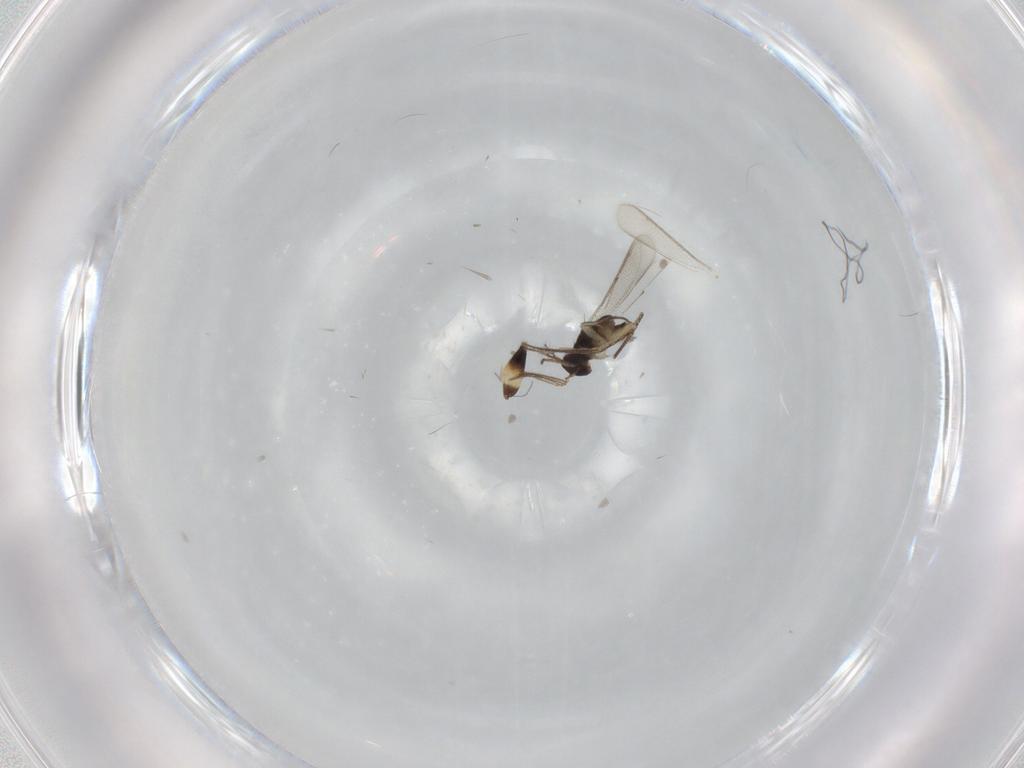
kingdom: Animalia
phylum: Arthropoda
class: Insecta
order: Hymenoptera
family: Eulophidae
